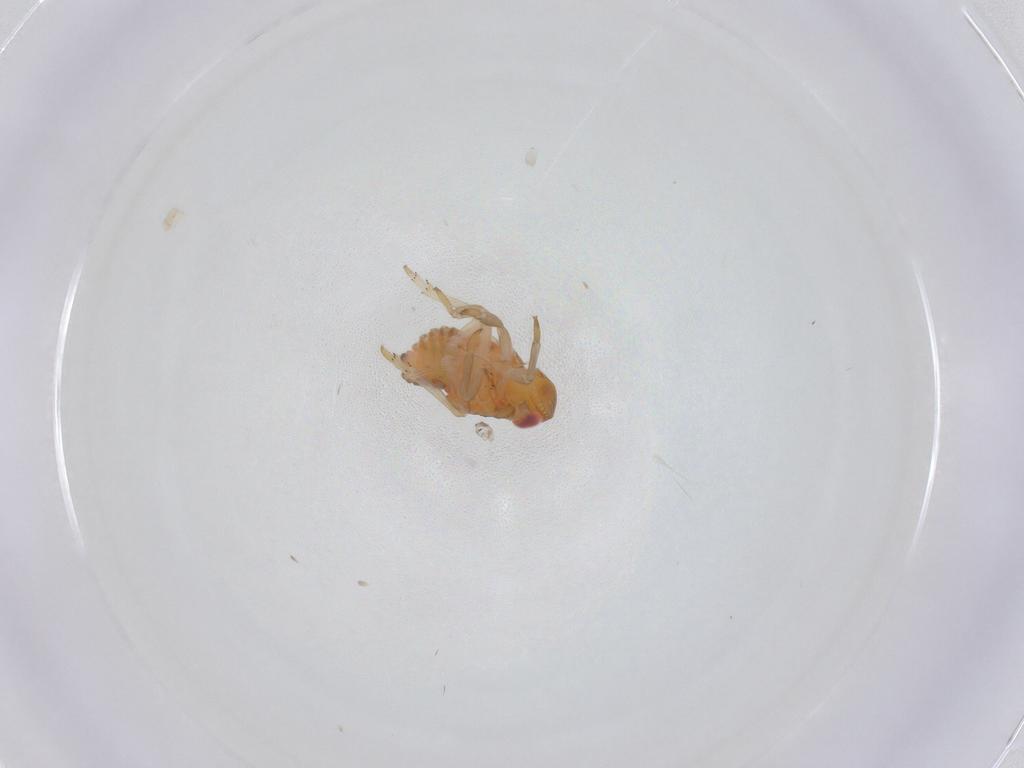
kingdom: Animalia
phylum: Arthropoda
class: Insecta
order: Hemiptera
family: Fulgoroidea_incertae_sedis
